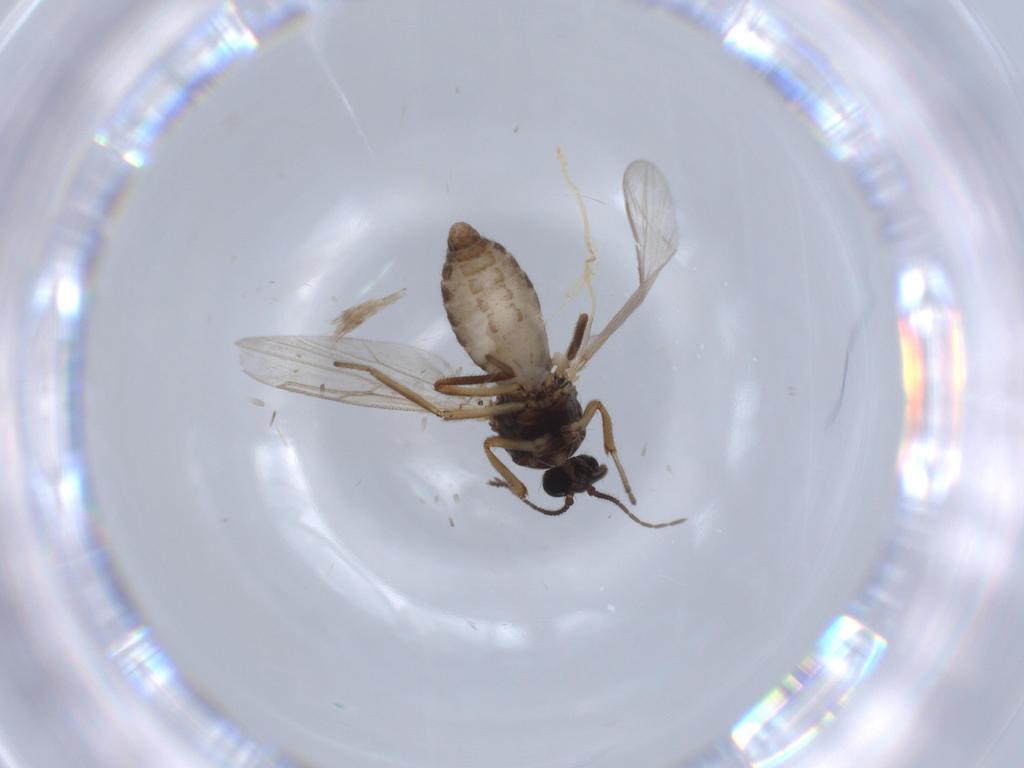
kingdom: Animalia
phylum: Arthropoda
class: Insecta
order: Diptera
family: Ceratopogonidae
